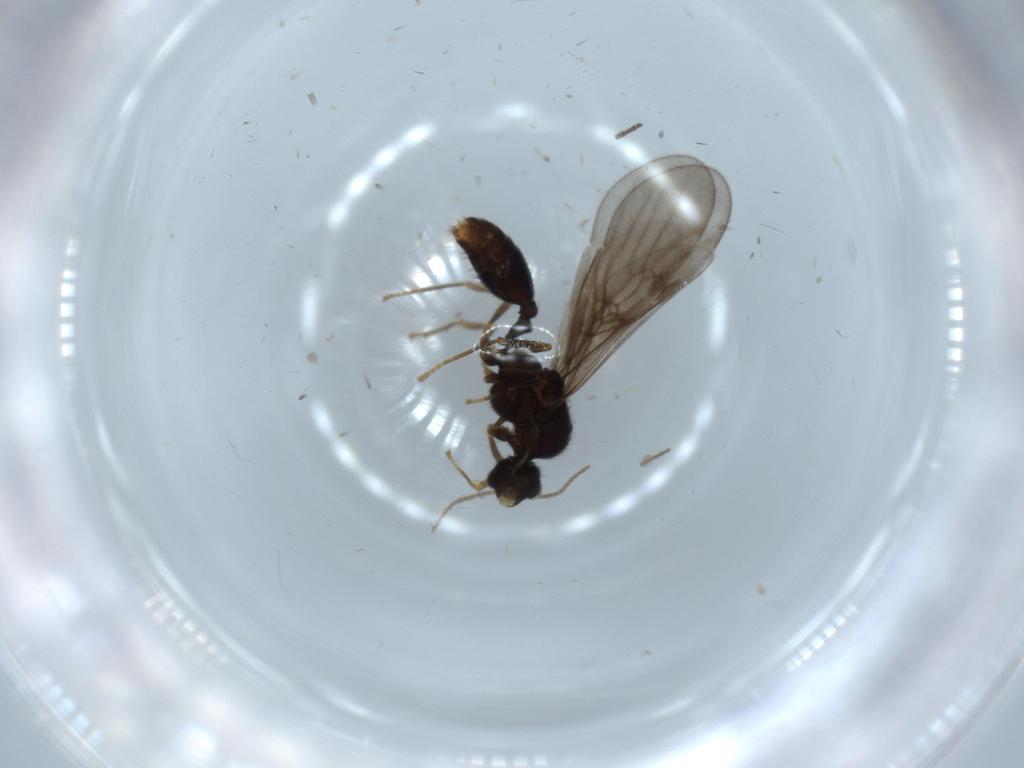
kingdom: Animalia
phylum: Arthropoda
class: Insecta
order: Hymenoptera
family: Formicidae
